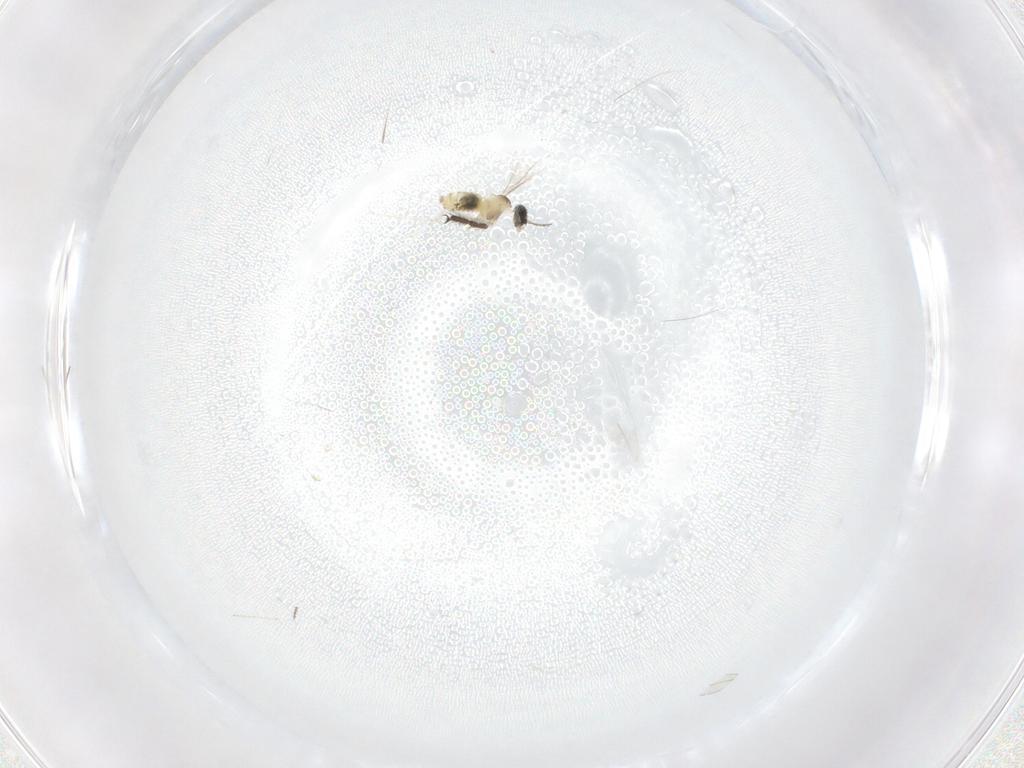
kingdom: Animalia
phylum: Arthropoda
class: Insecta
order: Diptera
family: Limoniidae
